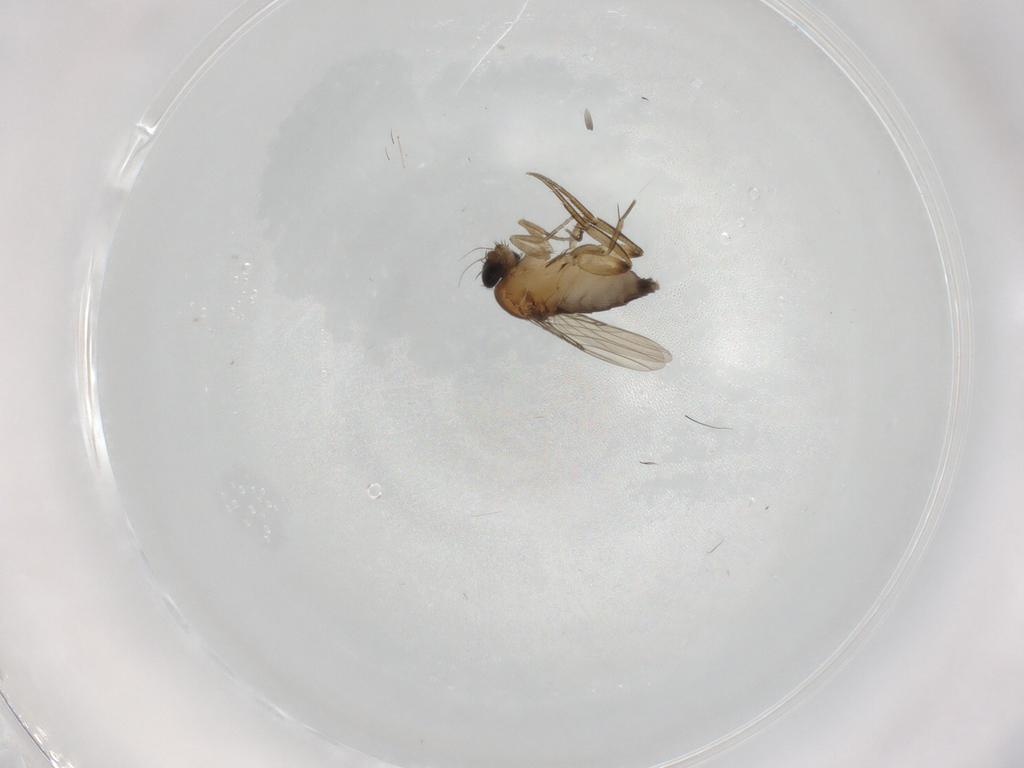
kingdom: Animalia
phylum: Arthropoda
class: Insecta
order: Diptera
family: Phoridae
